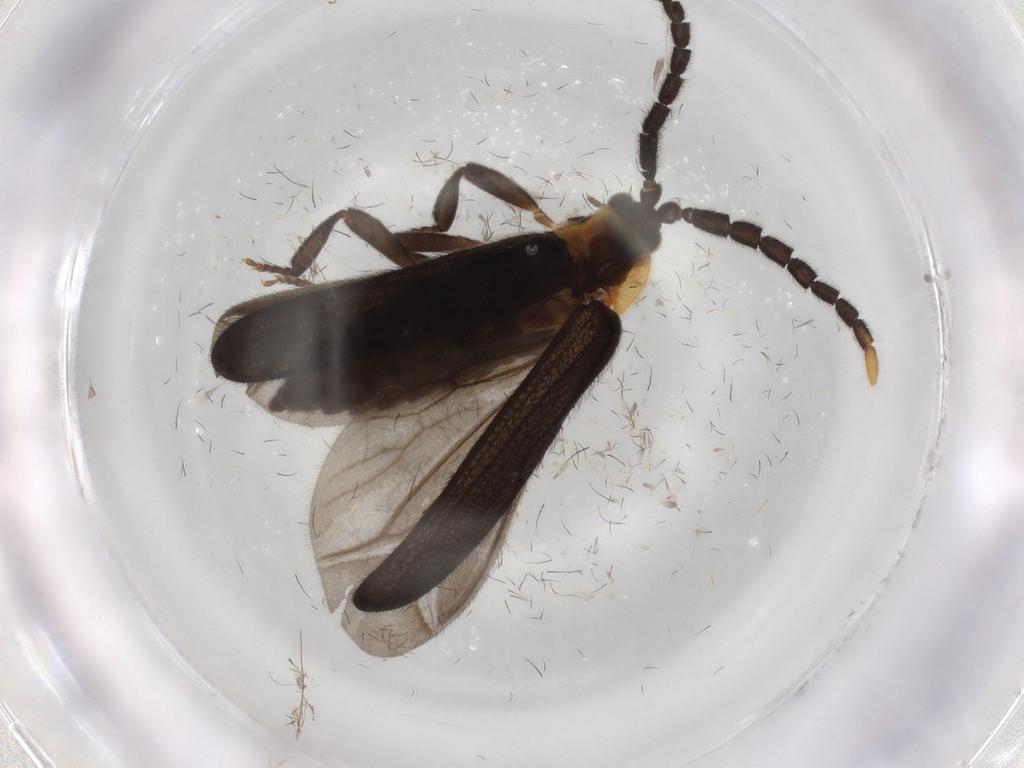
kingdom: Animalia
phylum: Arthropoda
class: Insecta
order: Coleoptera
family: Lycidae
